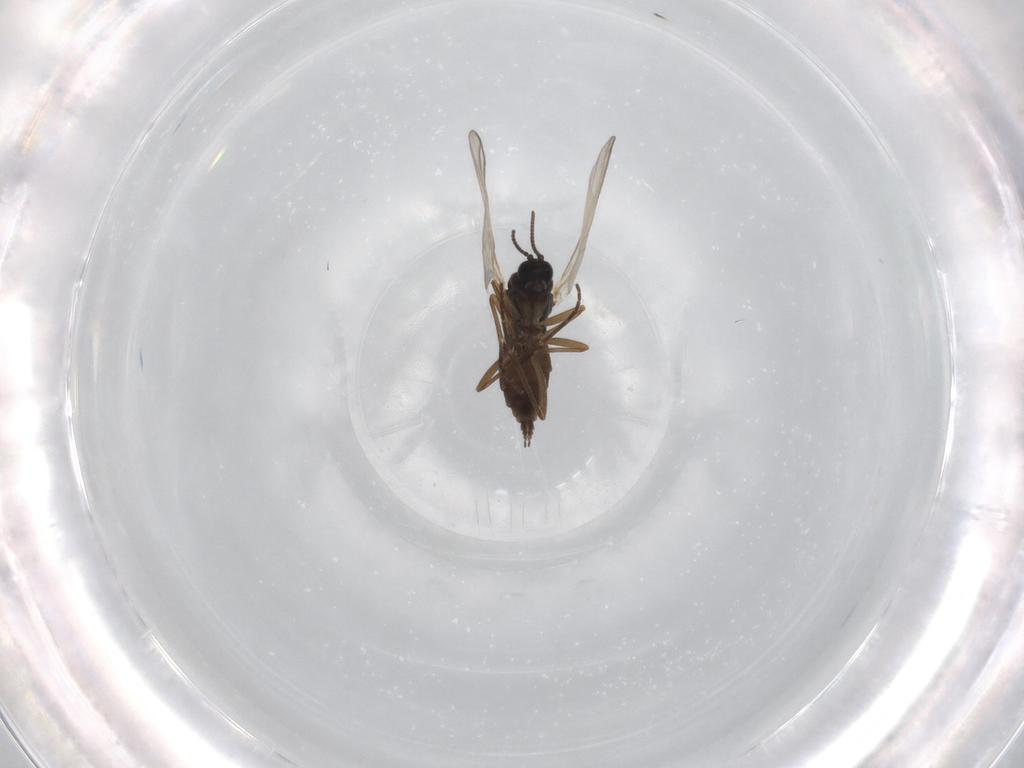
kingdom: Animalia
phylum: Arthropoda
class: Insecta
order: Diptera
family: Sciaridae
